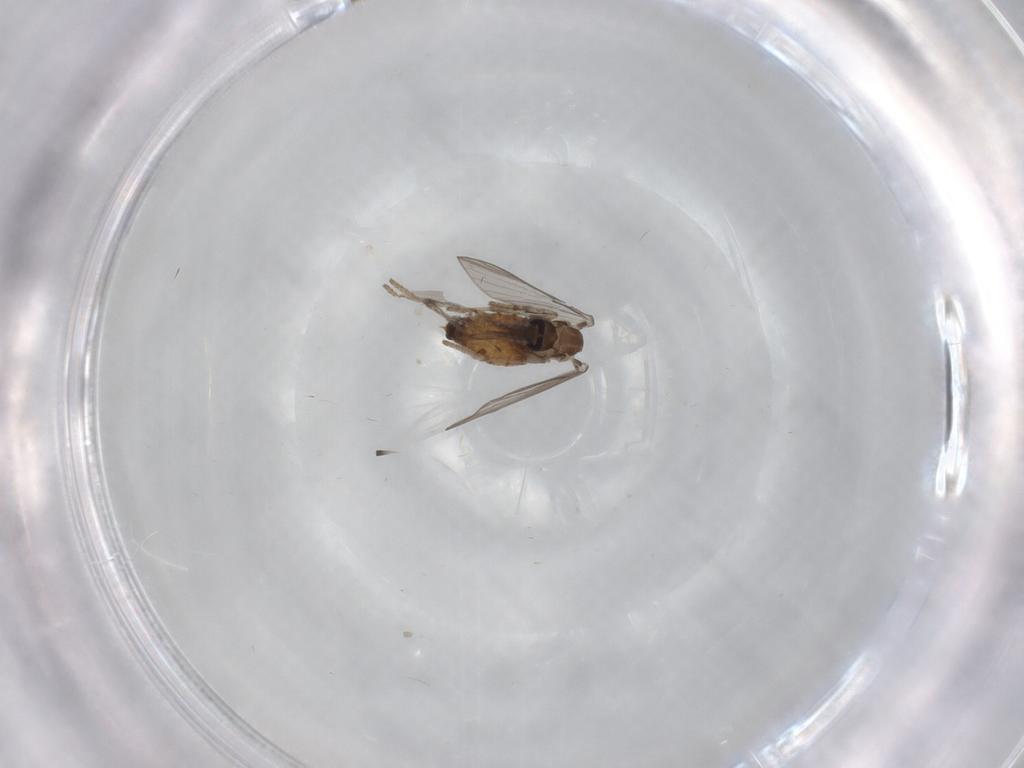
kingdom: Animalia
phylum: Arthropoda
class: Insecta
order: Diptera
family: Psychodidae
